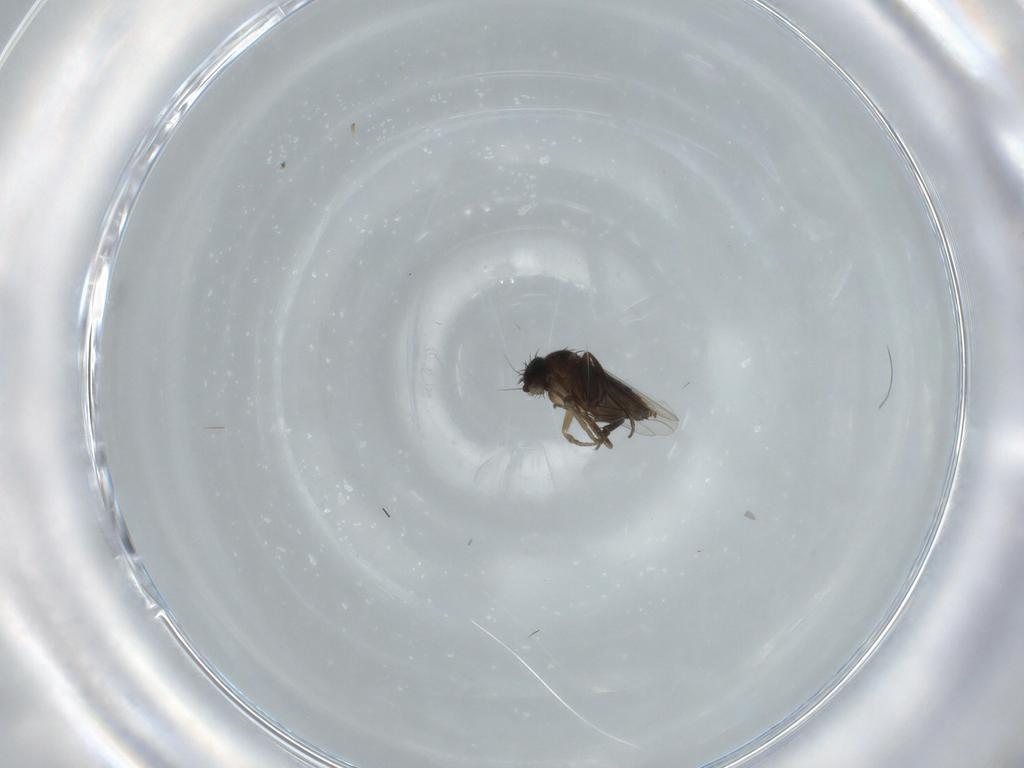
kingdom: Animalia
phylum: Arthropoda
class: Insecta
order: Diptera
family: Phoridae
